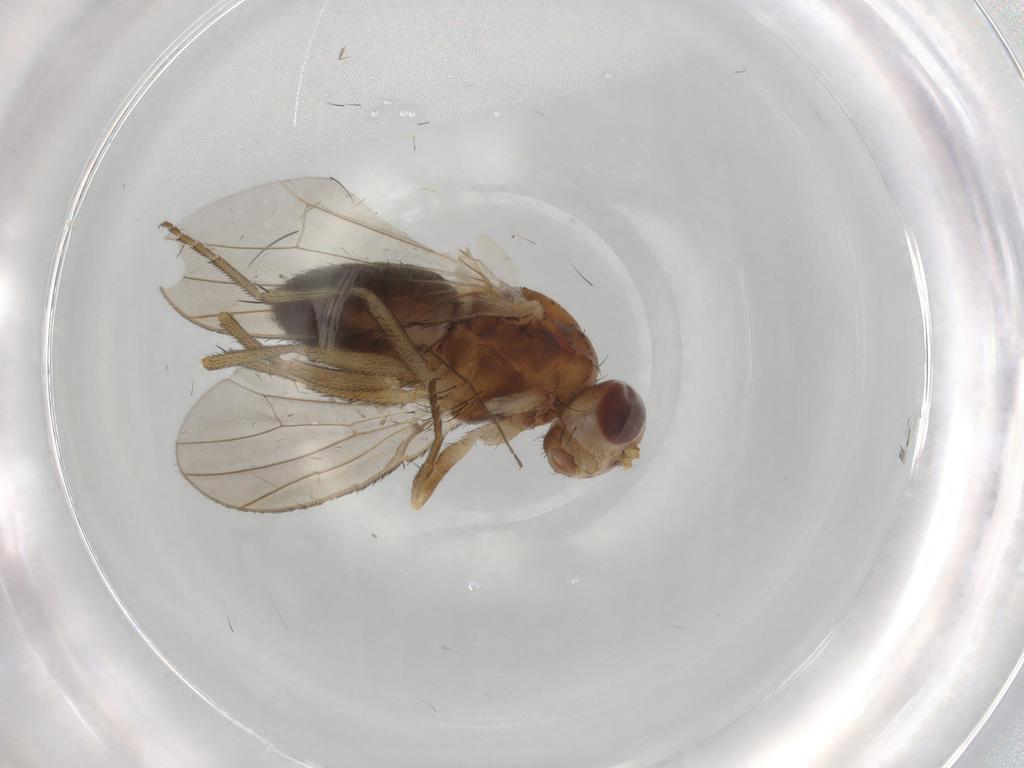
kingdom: Animalia
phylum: Arthropoda
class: Insecta
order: Diptera
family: Heleomyzidae
